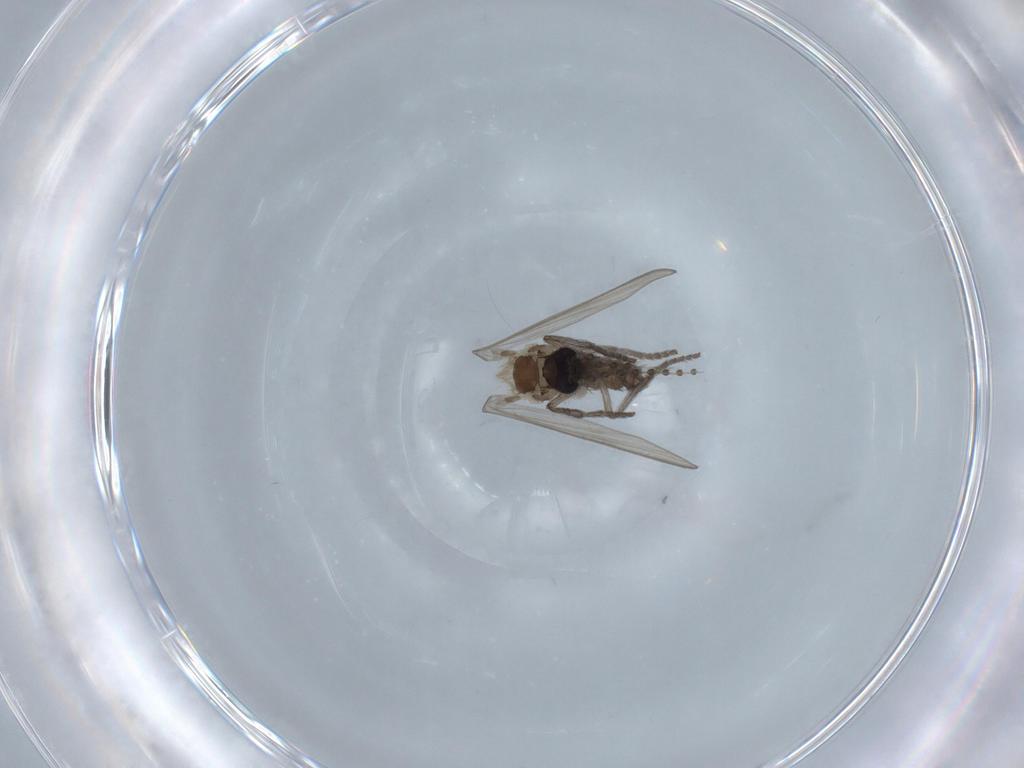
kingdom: Animalia
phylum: Arthropoda
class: Insecta
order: Diptera
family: Psychodidae
